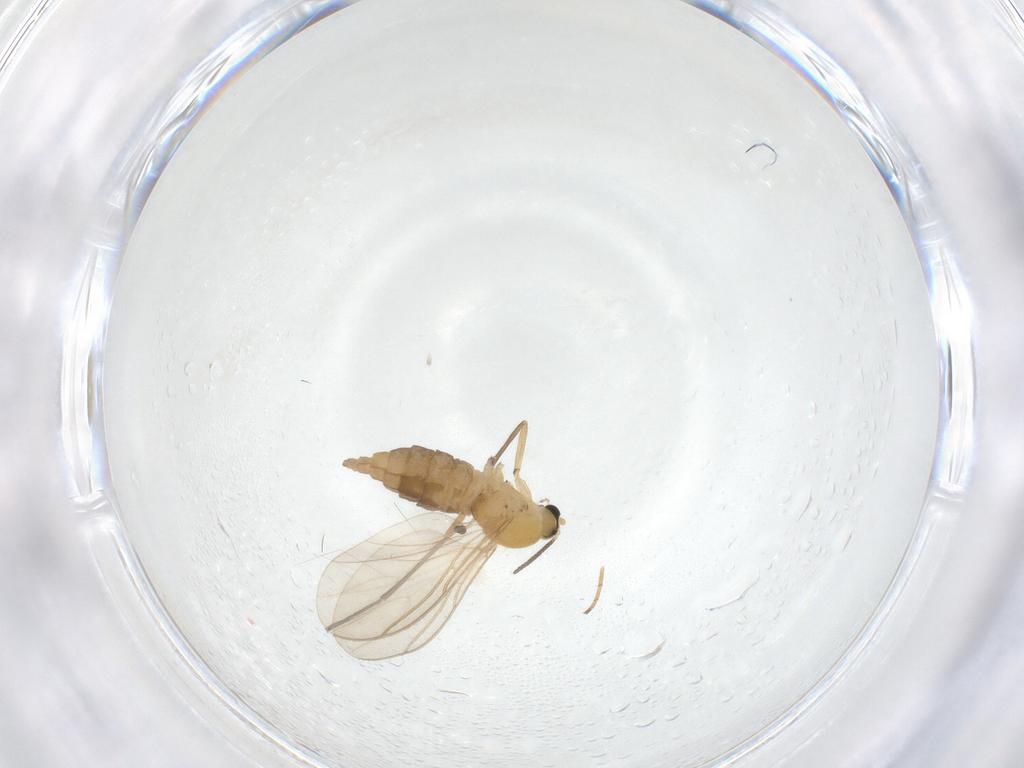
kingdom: Animalia
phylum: Arthropoda
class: Insecta
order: Diptera
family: Sciaridae
